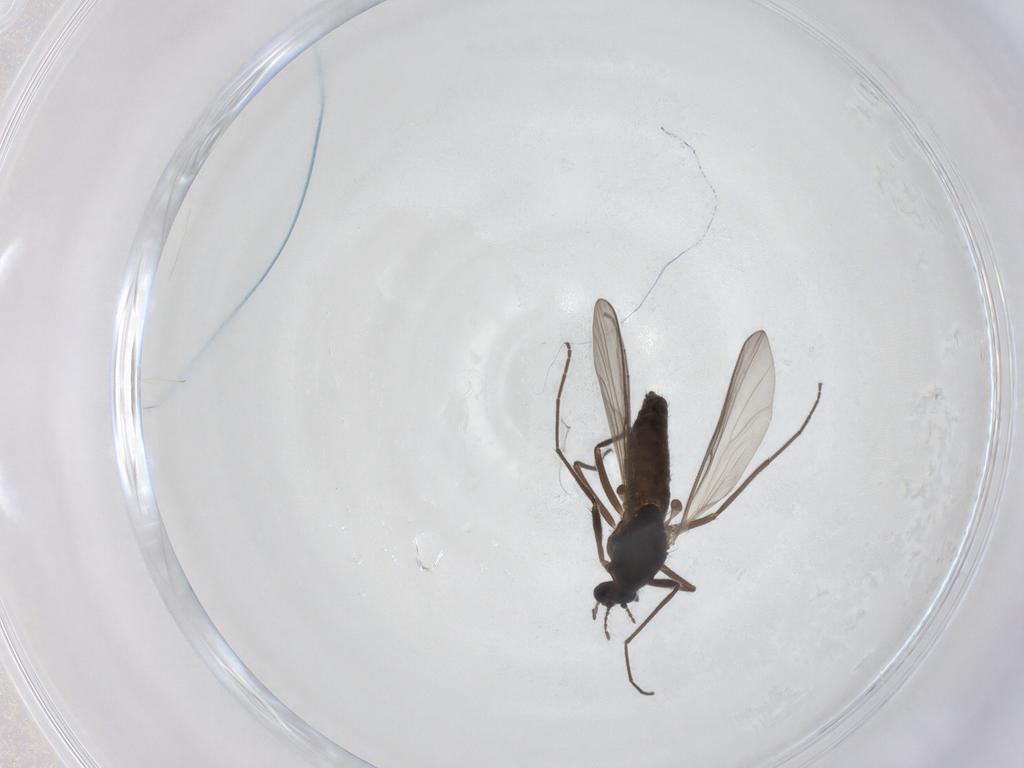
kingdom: Animalia
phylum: Arthropoda
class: Insecta
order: Diptera
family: Chironomidae
